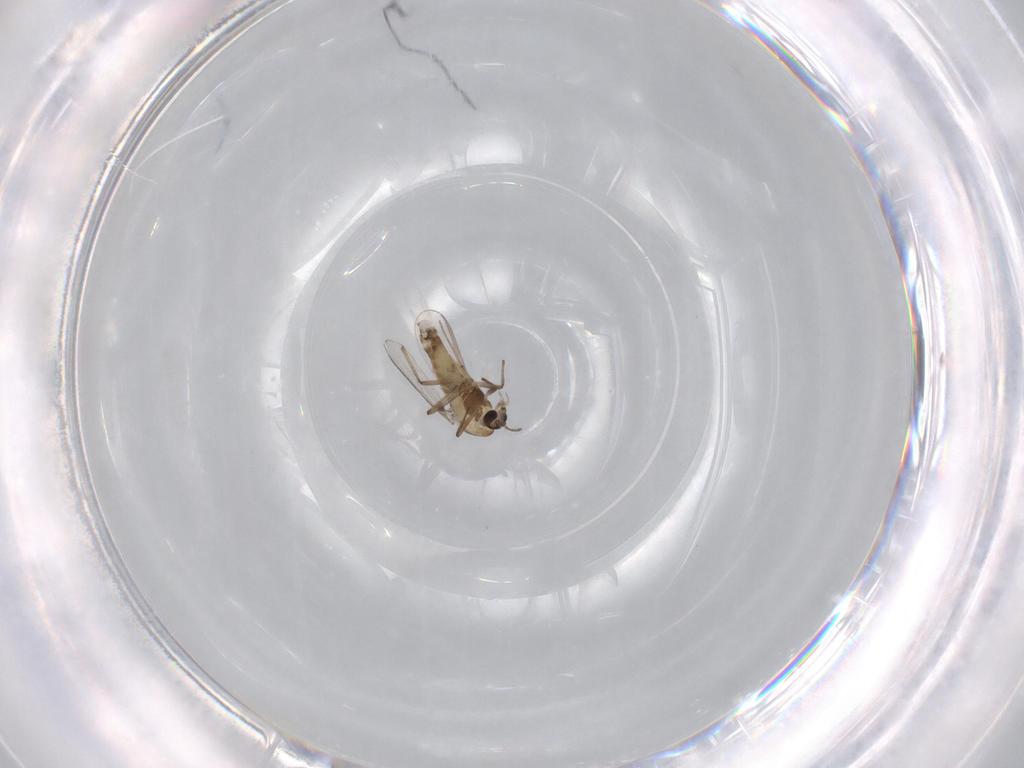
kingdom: Animalia
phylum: Arthropoda
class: Insecta
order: Diptera
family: Chironomidae
